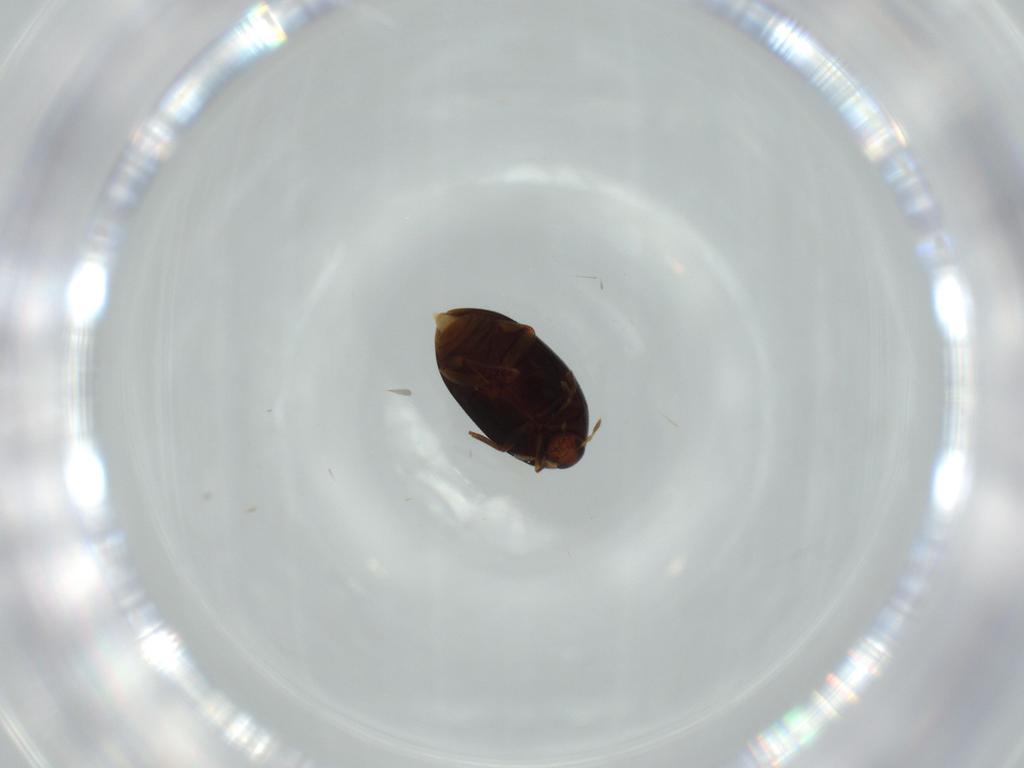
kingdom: Animalia
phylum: Arthropoda
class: Insecta
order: Coleoptera
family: Melandryidae
